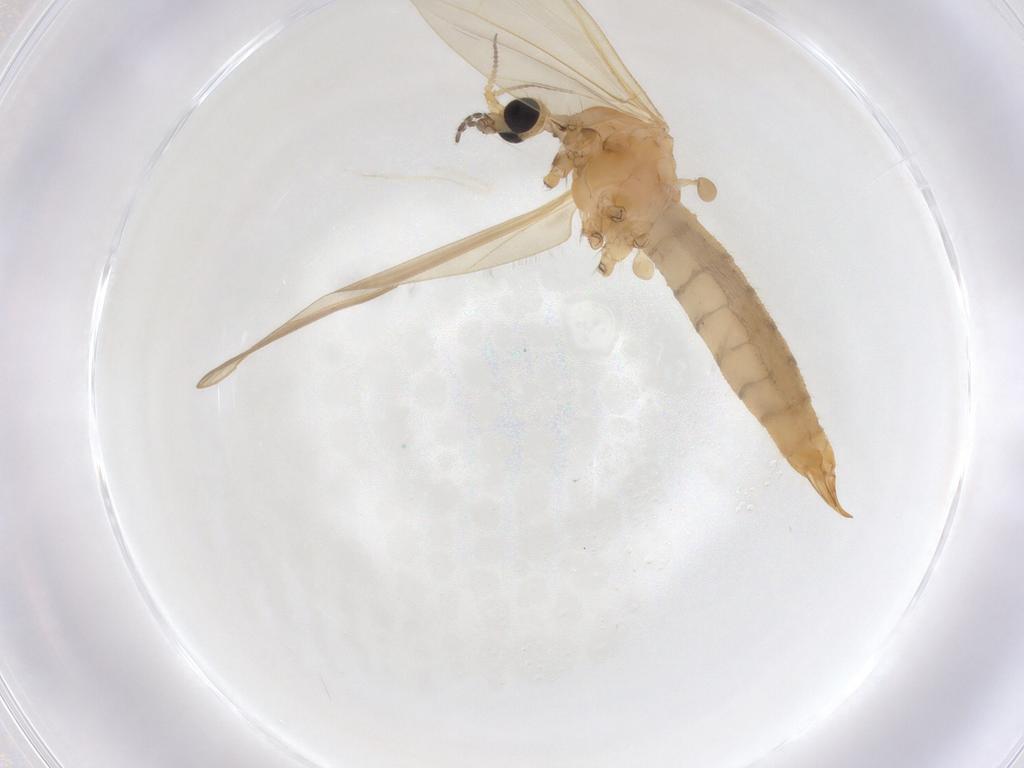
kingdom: Animalia
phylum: Arthropoda
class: Insecta
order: Diptera
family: Limoniidae
